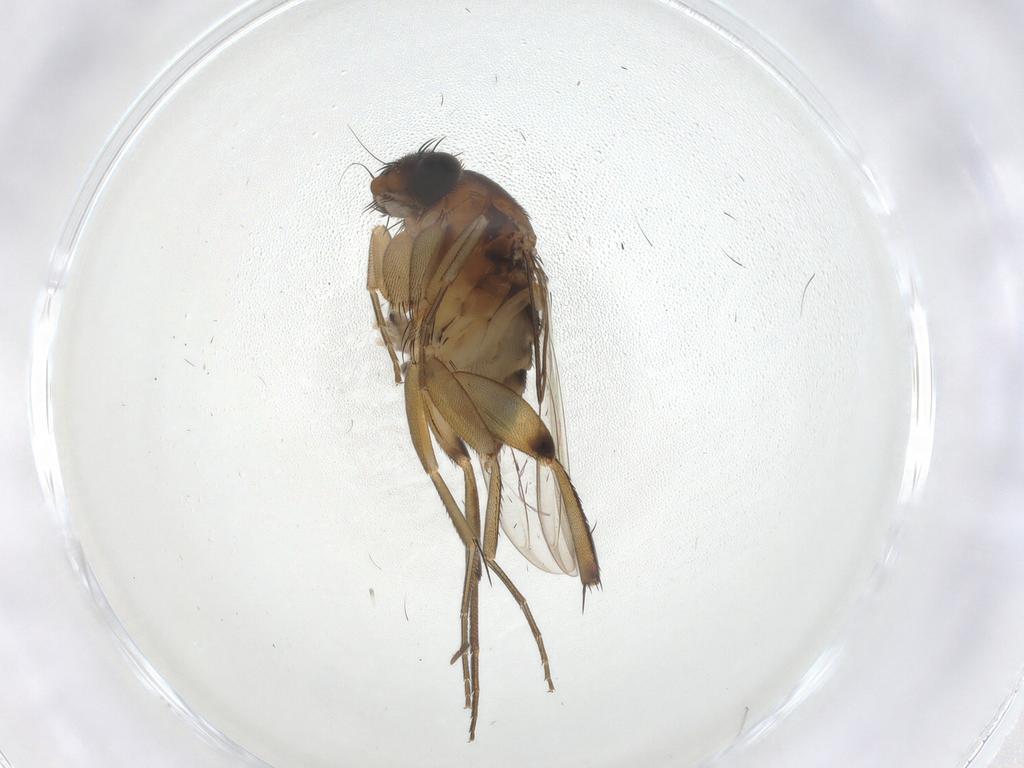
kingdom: Animalia
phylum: Arthropoda
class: Insecta
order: Diptera
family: Phoridae
